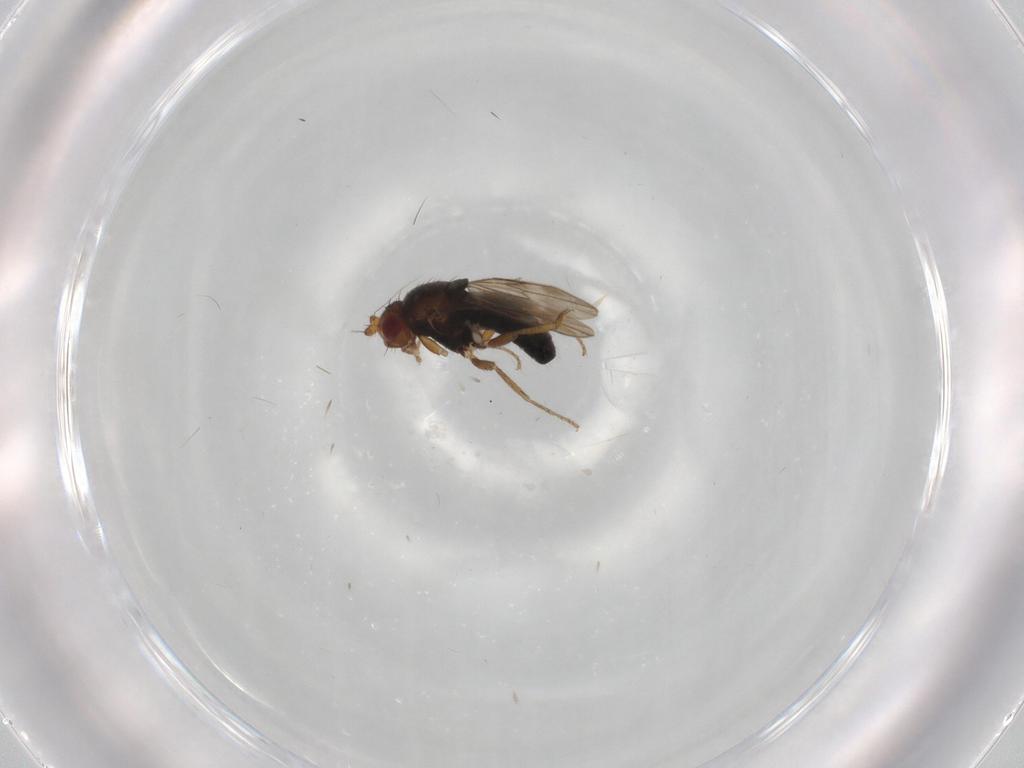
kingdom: Animalia
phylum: Arthropoda
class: Insecta
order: Diptera
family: Sphaeroceridae
